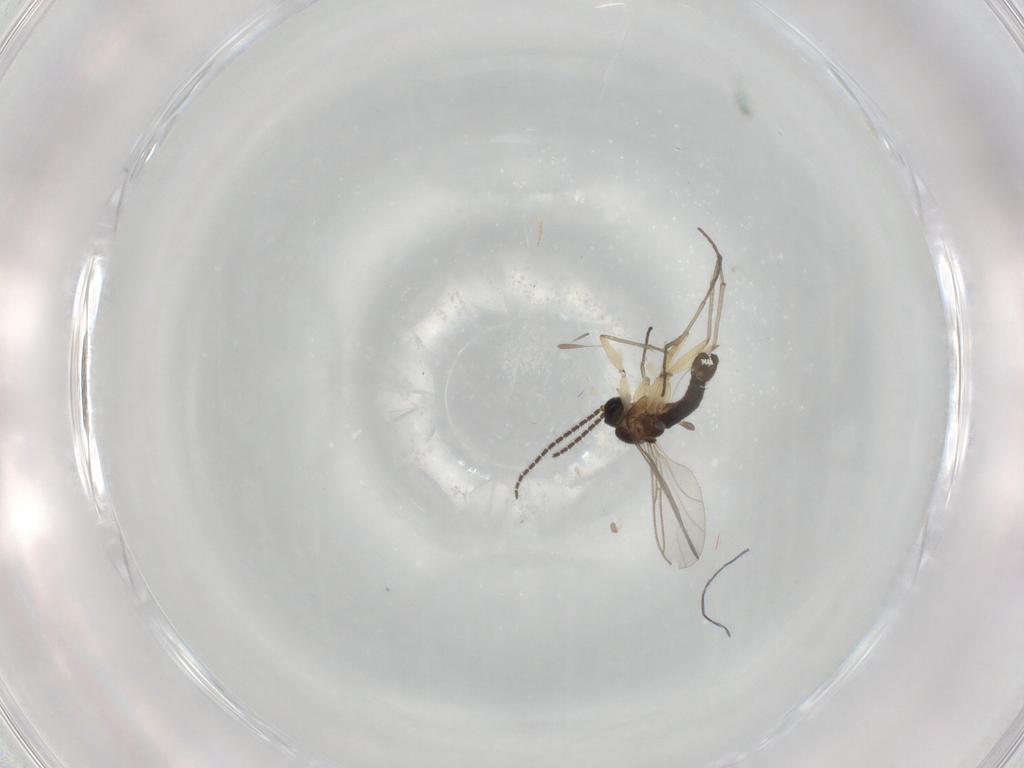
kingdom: Animalia
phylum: Arthropoda
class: Insecta
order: Diptera
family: Sciaridae
